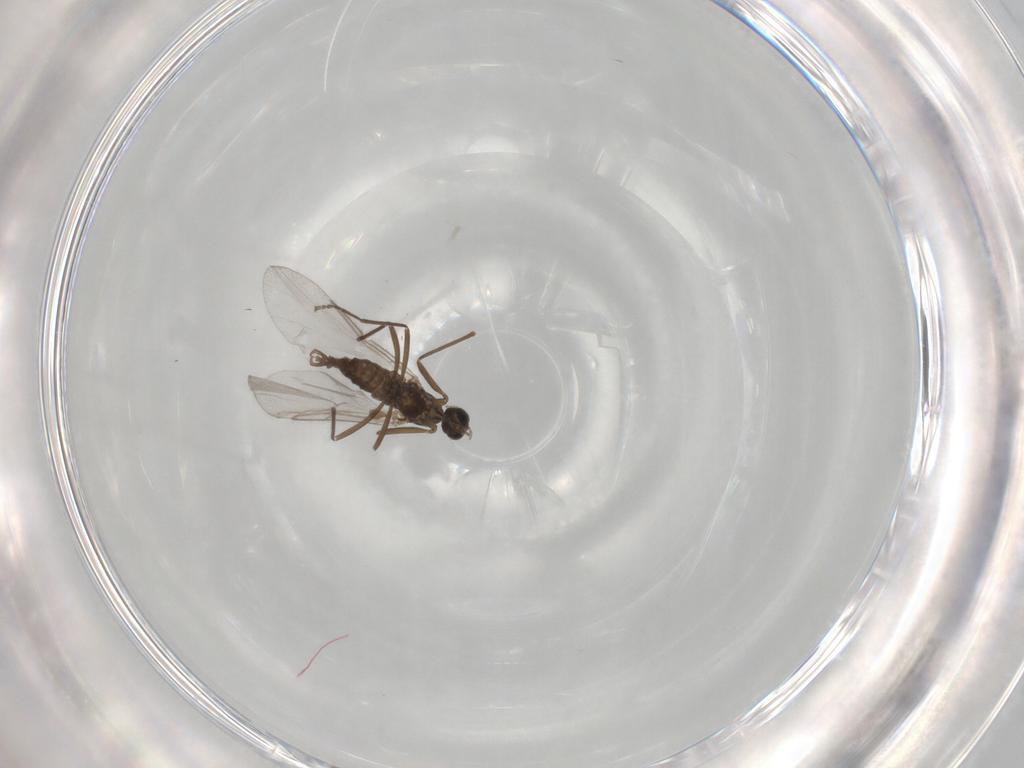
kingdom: Animalia
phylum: Arthropoda
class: Insecta
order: Diptera
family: Cecidomyiidae
